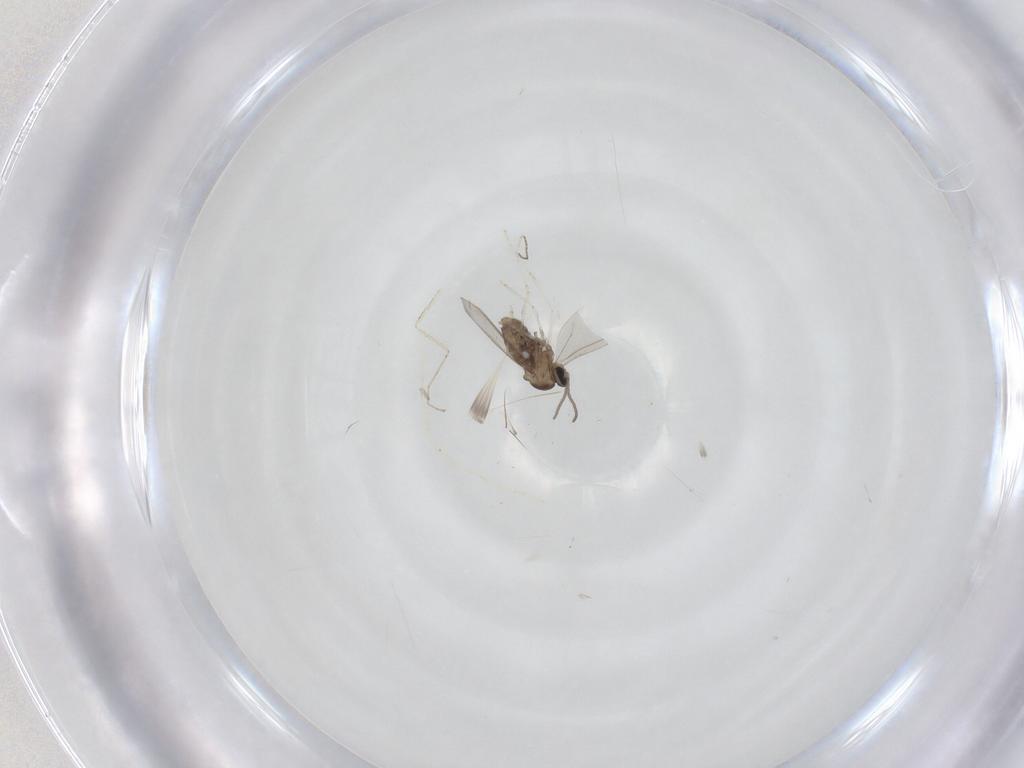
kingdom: Animalia
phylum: Arthropoda
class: Insecta
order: Diptera
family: Cecidomyiidae
